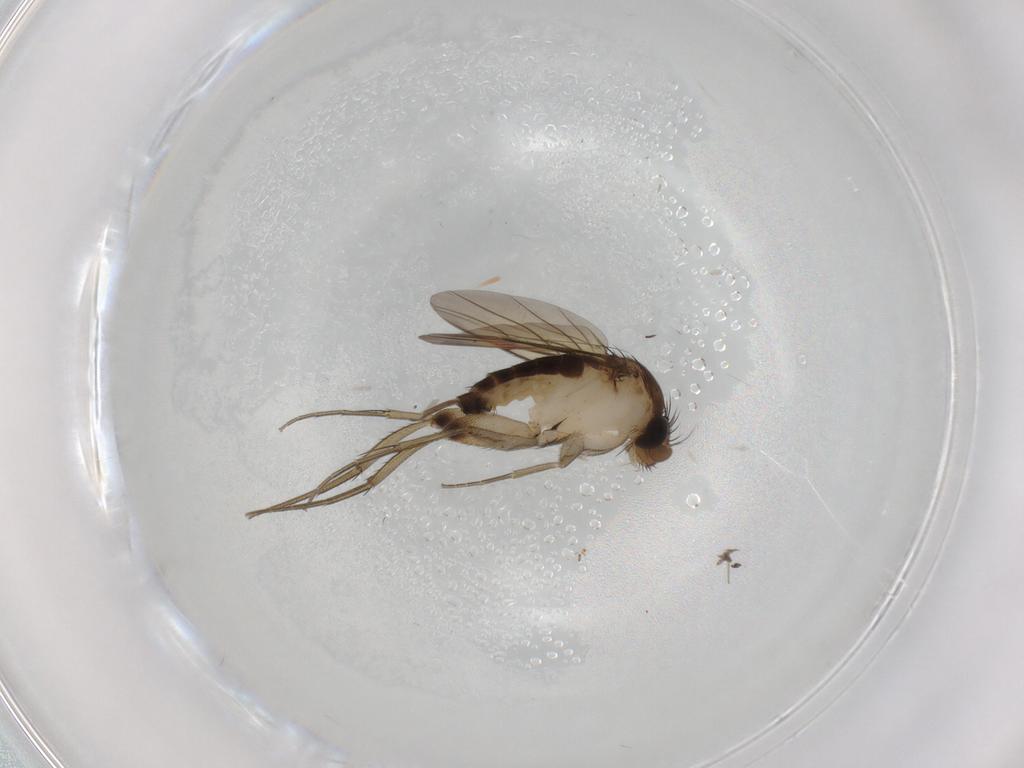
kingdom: Animalia
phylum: Arthropoda
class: Insecta
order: Diptera
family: Phoridae
